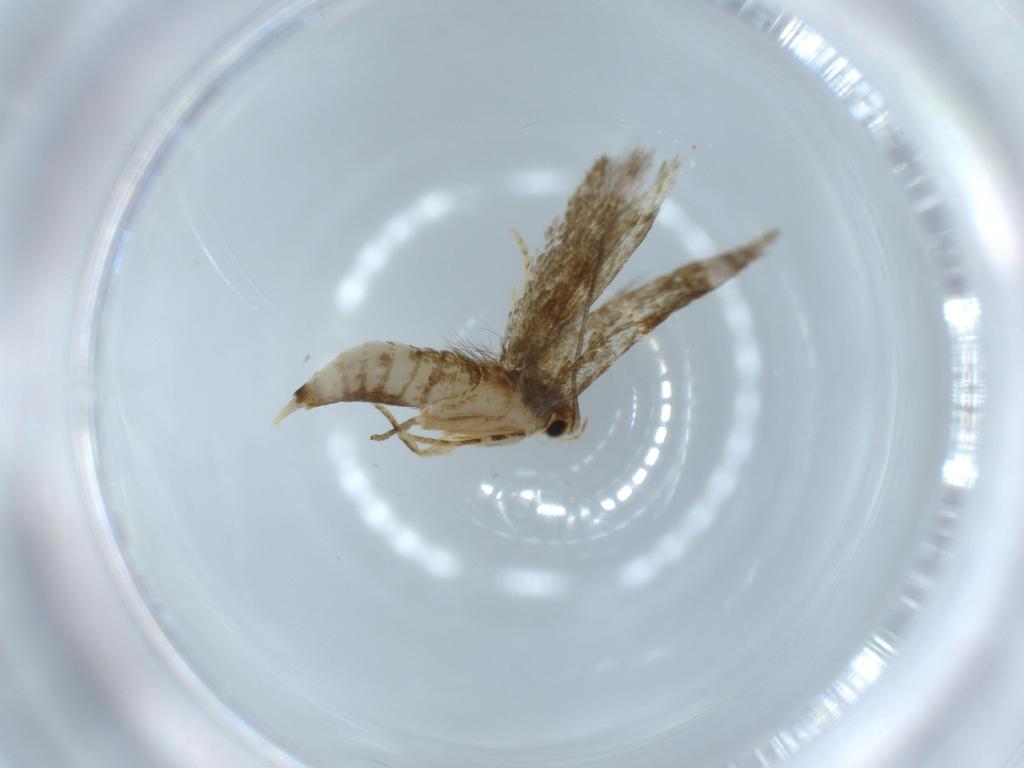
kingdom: Animalia
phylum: Arthropoda
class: Insecta
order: Lepidoptera
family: Tineidae
